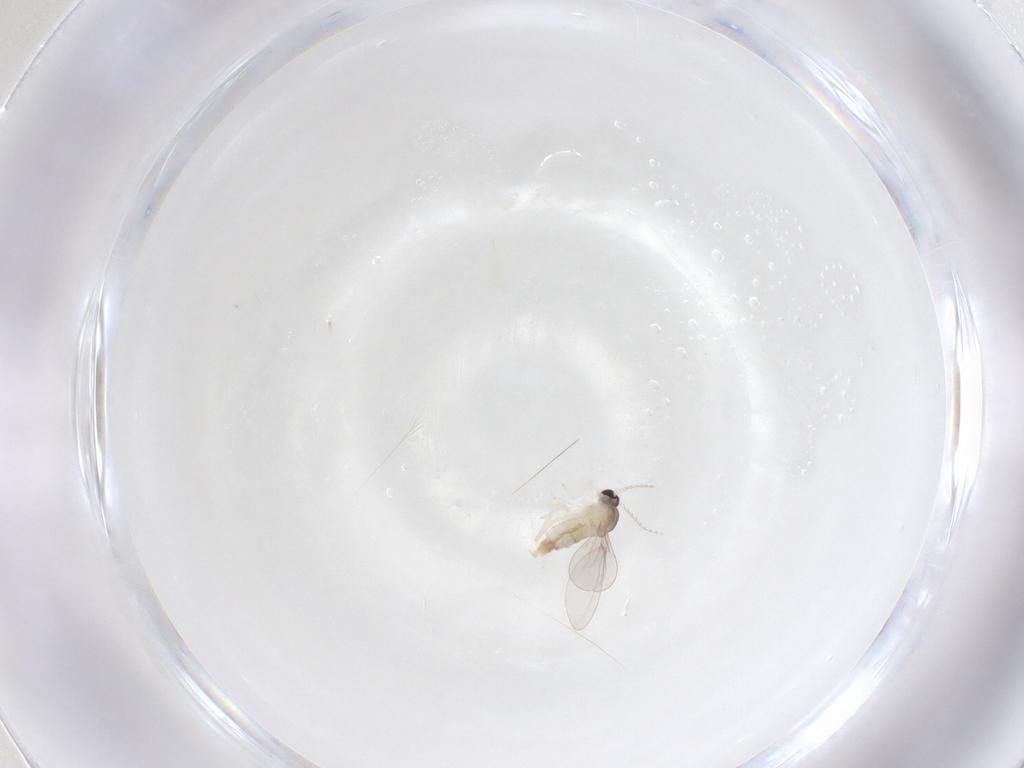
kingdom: Animalia
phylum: Arthropoda
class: Insecta
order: Diptera
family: Cecidomyiidae
